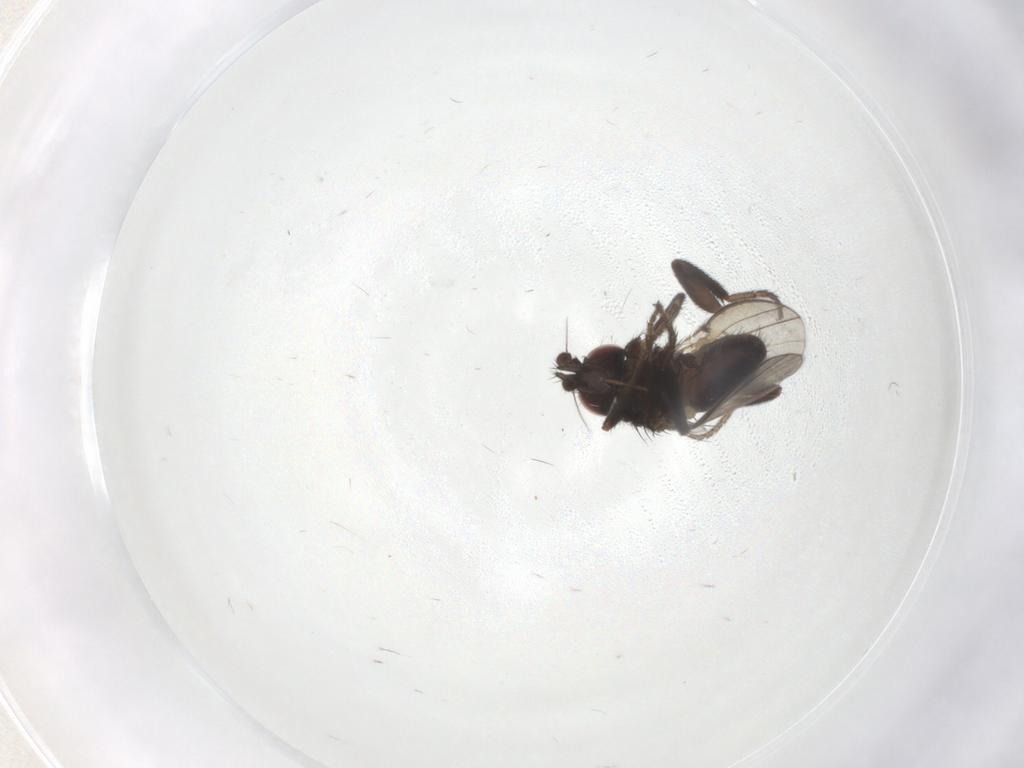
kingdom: Animalia
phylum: Arthropoda
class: Insecta
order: Diptera
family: Milichiidae
